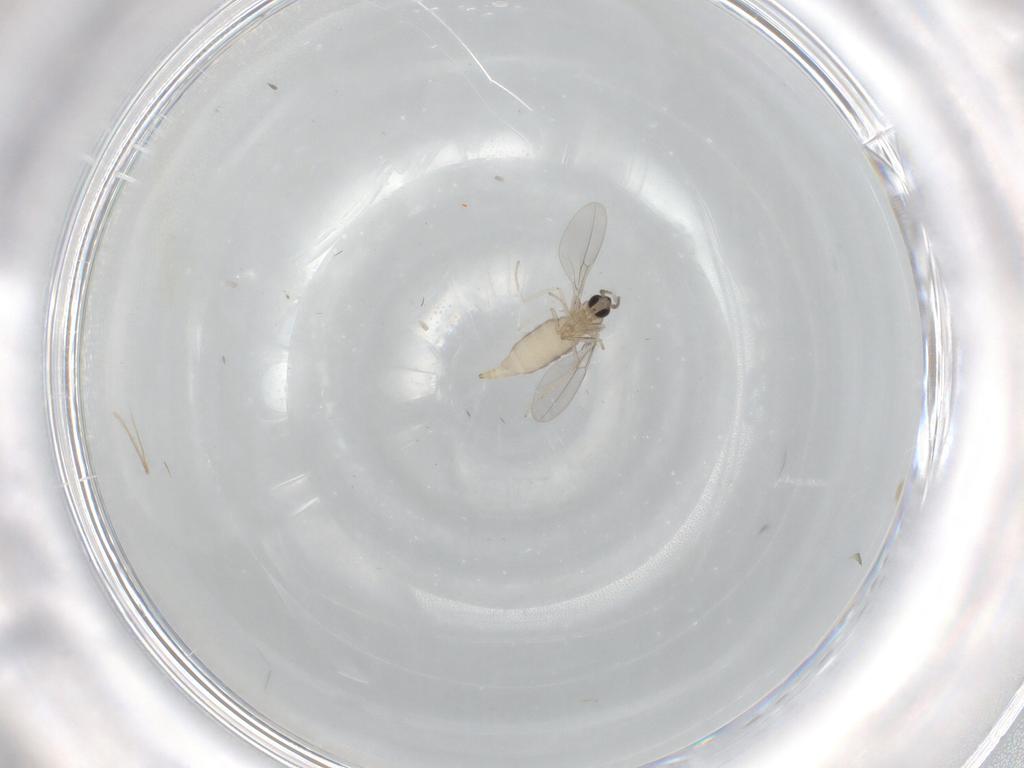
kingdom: Animalia
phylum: Arthropoda
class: Insecta
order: Diptera
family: Cecidomyiidae
